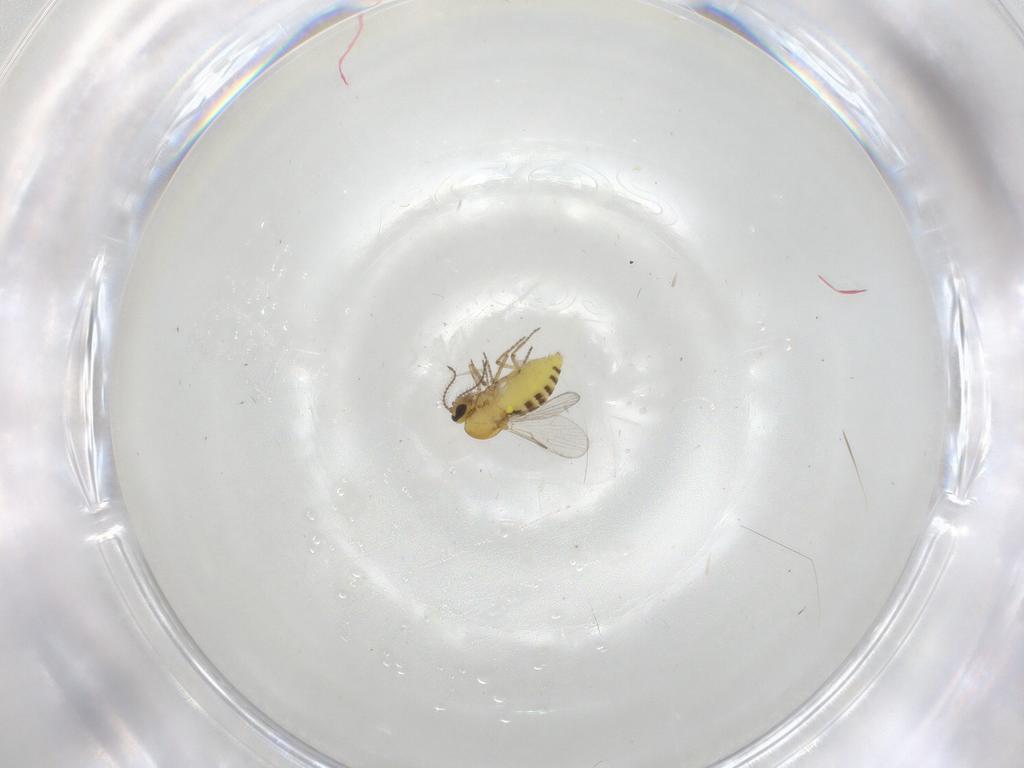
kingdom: Animalia
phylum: Arthropoda
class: Insecta
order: Diptera
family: Ceratopogonidae
